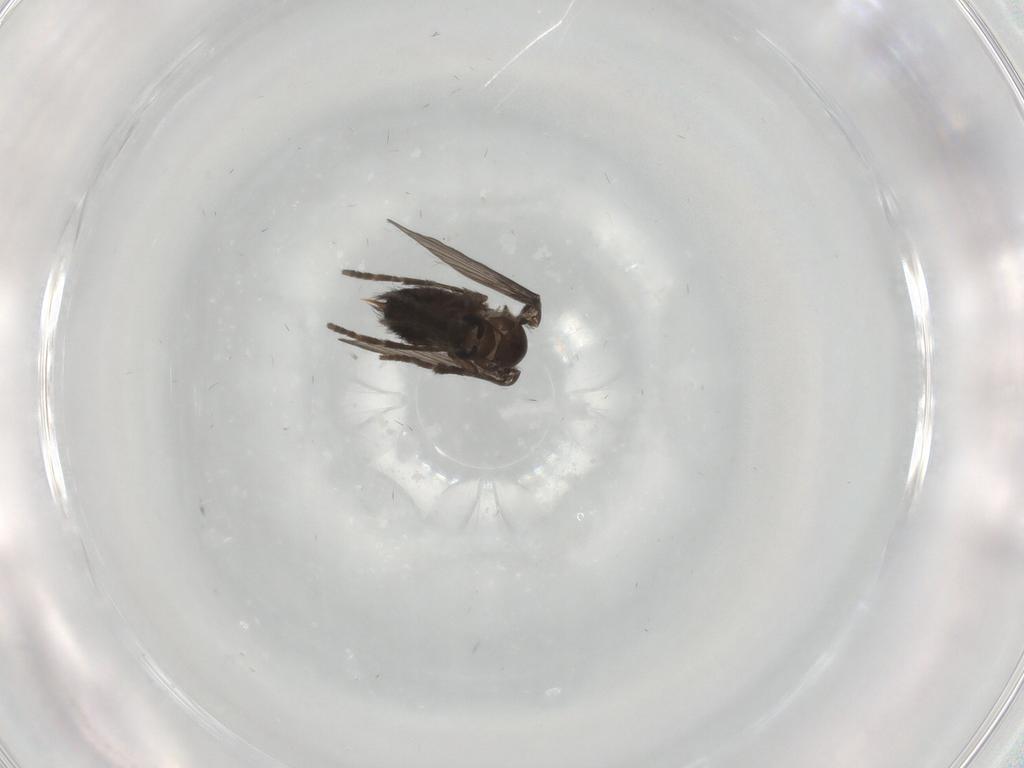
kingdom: Animalia
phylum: Arthropoda
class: Insecta
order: Diptera
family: Psychodidae
